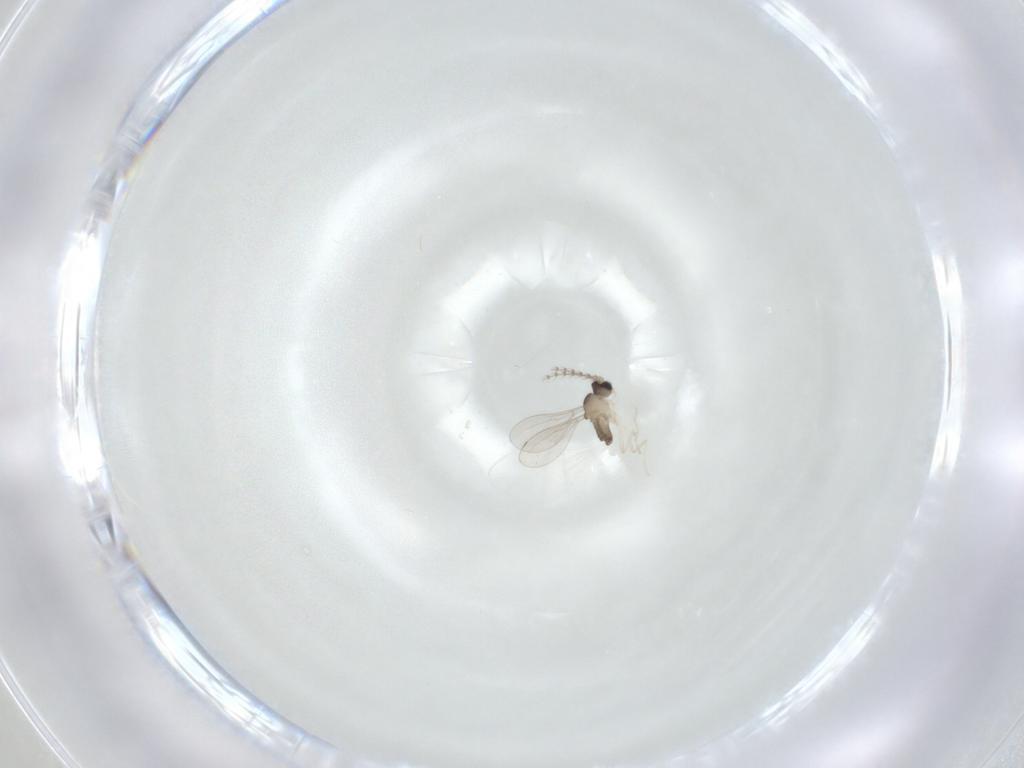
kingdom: Animalia
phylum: Arthropoda
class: Insecta
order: Diptera
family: Cecidomyiidae
